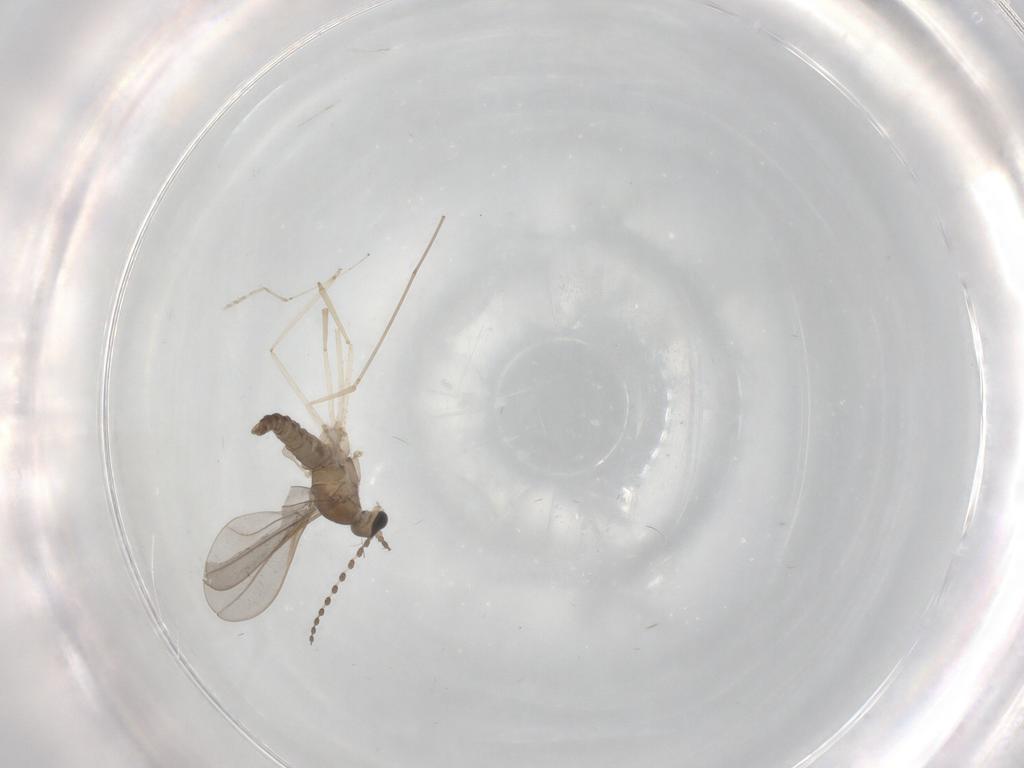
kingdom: Animalia
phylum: Arthropoda
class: Insecta
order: Diptera
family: Cecidomyiidae
